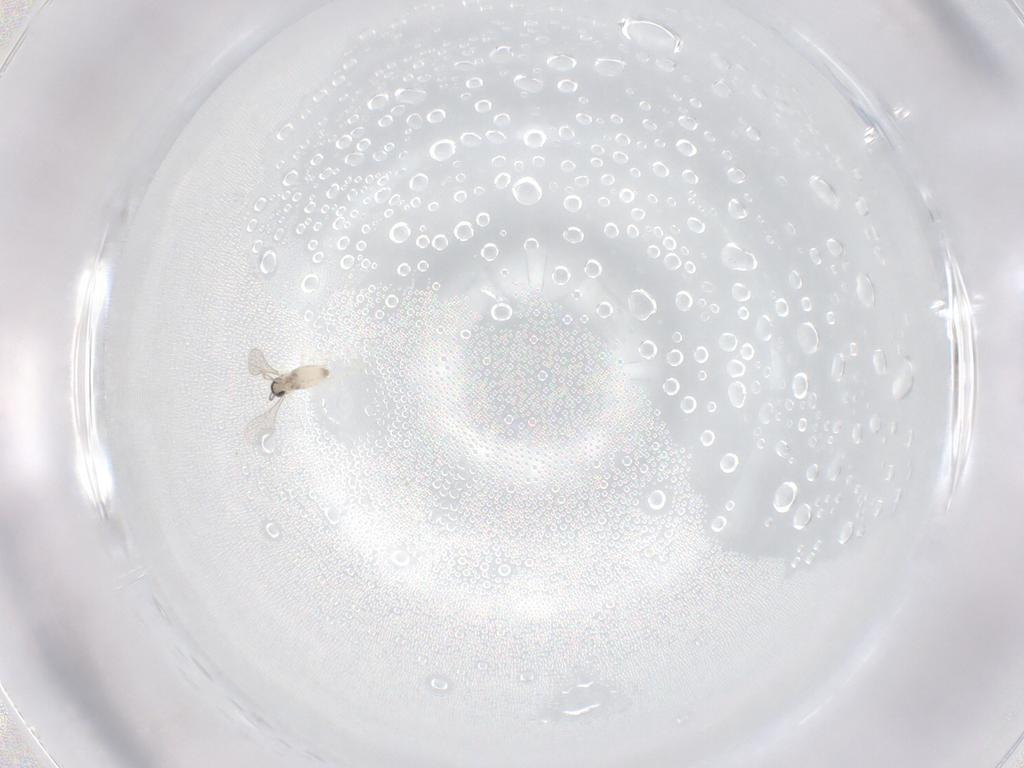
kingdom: Animalia
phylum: Arthropoda
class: Insecta
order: Diptera
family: Cecidomyiidae
